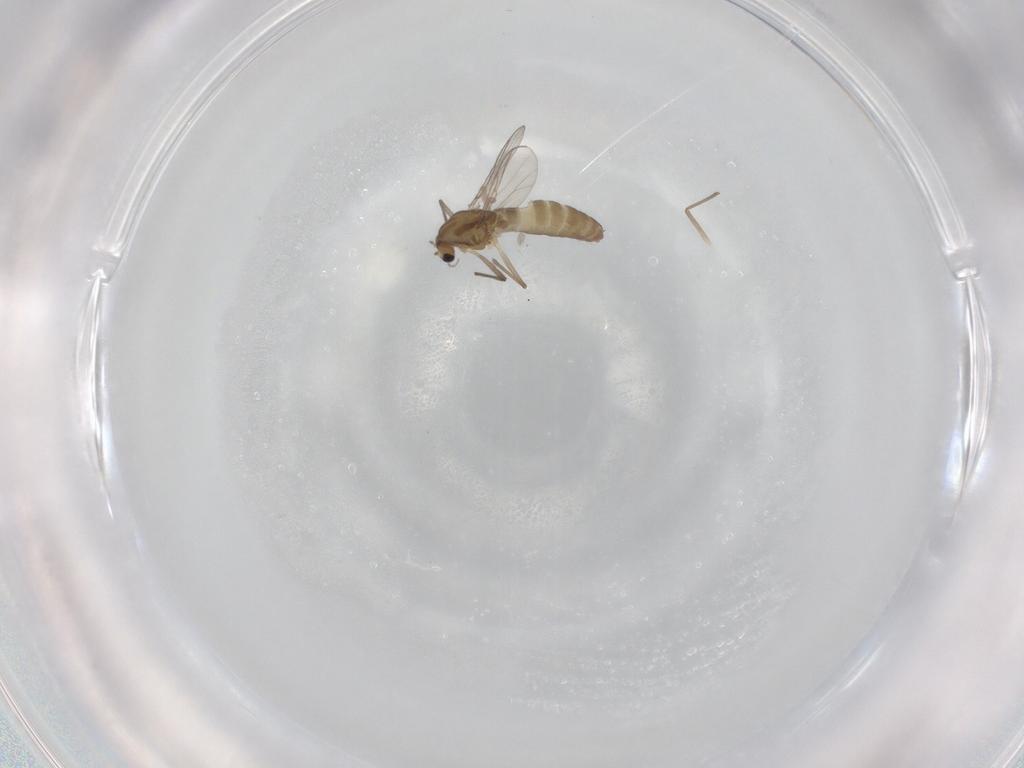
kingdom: Animalia
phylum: Arthropoda
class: Insecta
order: Diptera
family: Chironomidae
